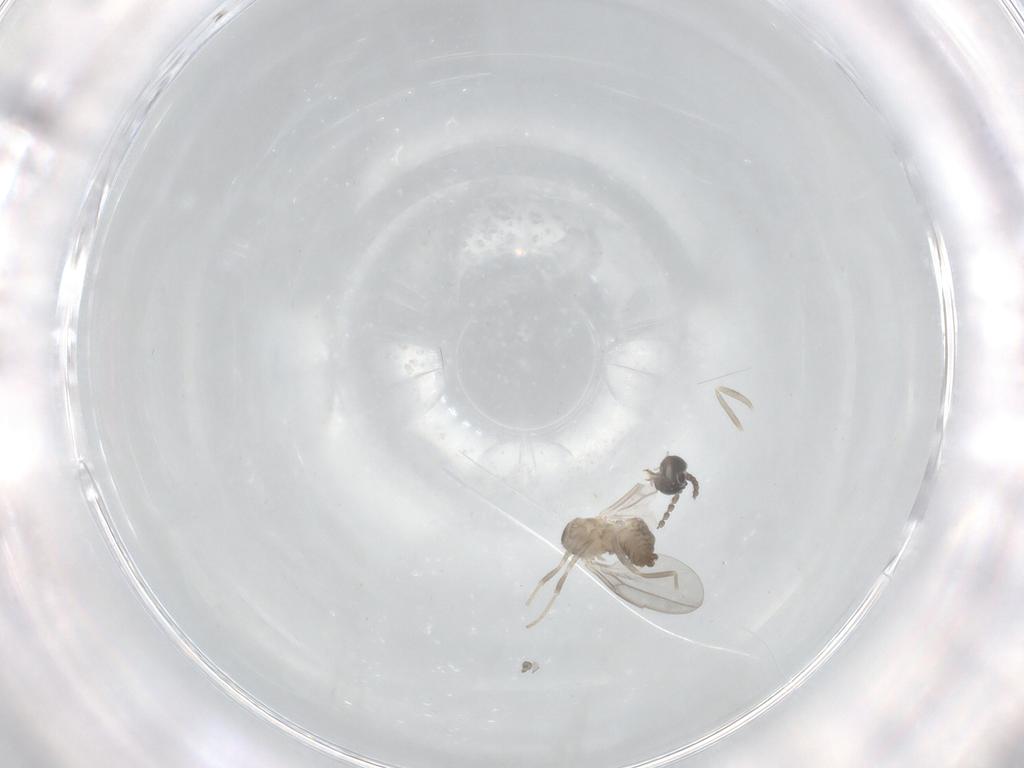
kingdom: Animalia
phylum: Arthropoda
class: Insecta
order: Diptera
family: Cecidomyiidae
